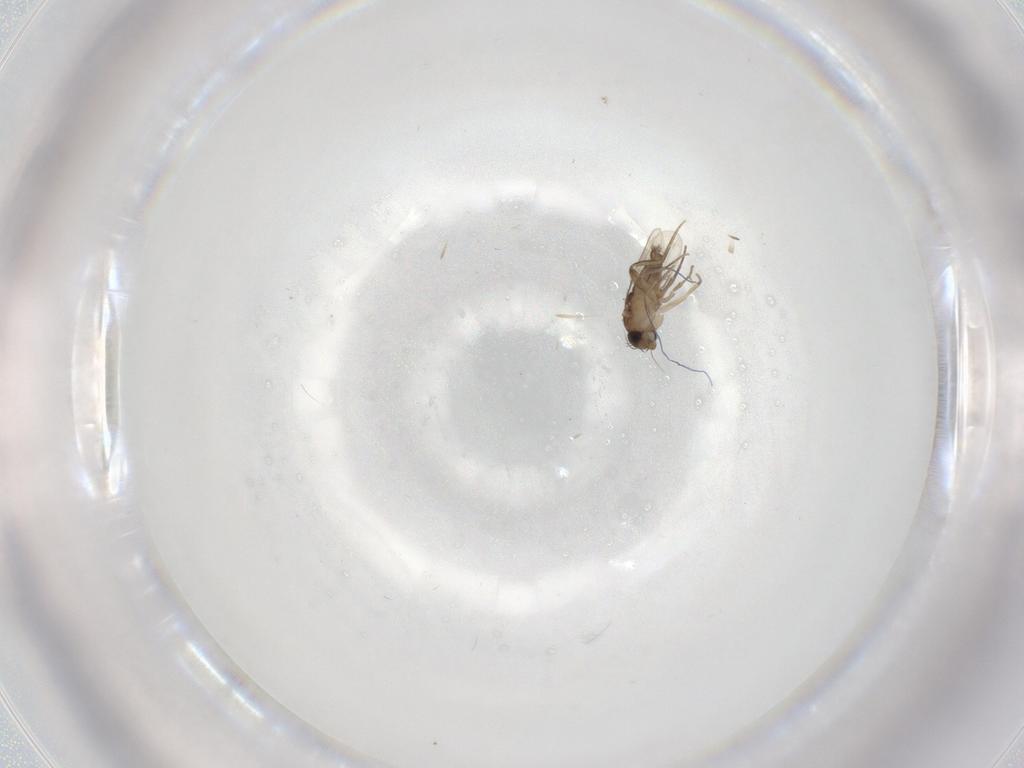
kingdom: Animalia
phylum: Arthropoda
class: Insecta
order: Diptera
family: Phoridae
